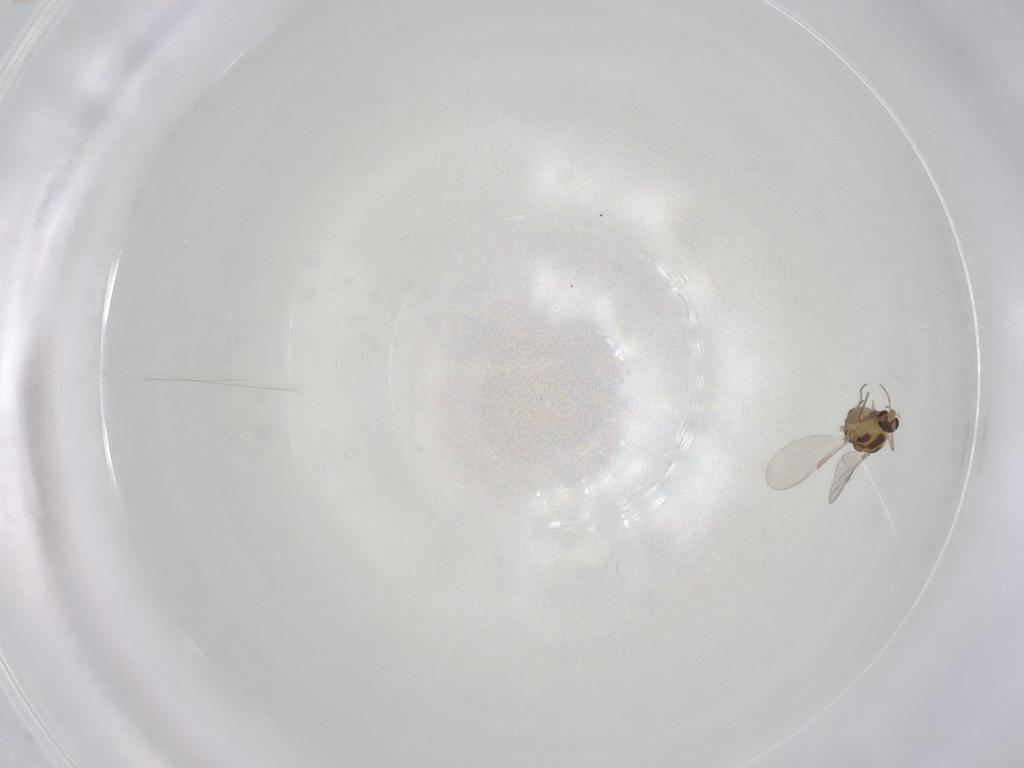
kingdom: Animalia
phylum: Arthropoda
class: Insecta
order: Diptera
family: Chironomidae
